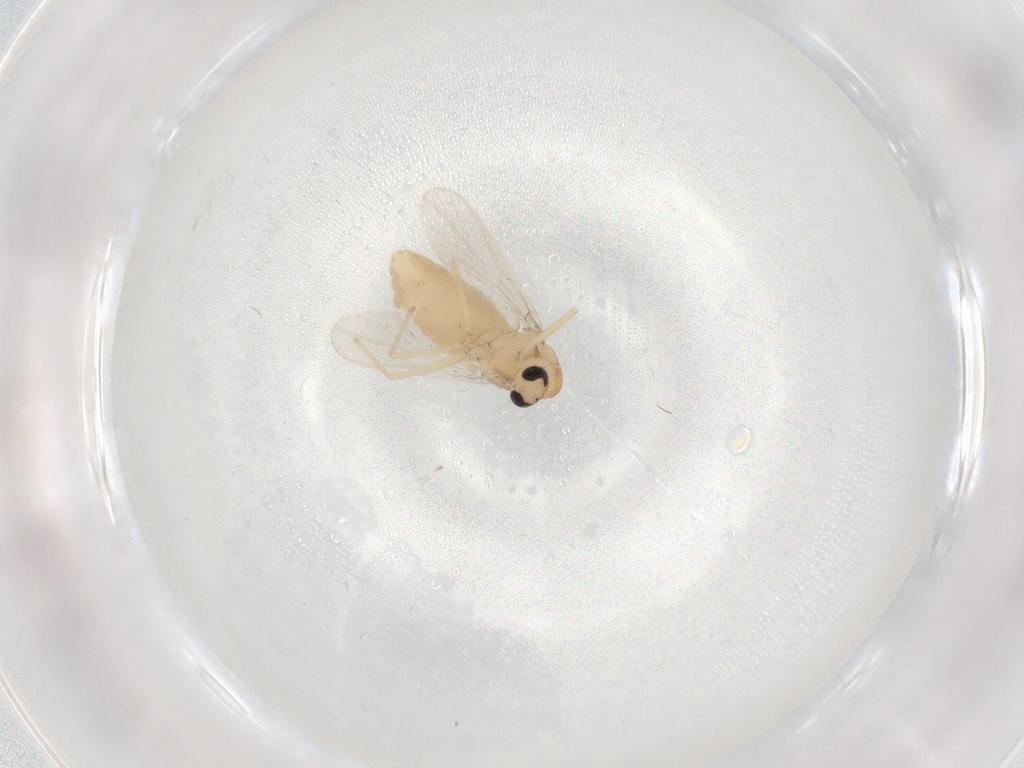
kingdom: Animalia
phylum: Arthropoda
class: Insecta
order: Diptera
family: Chironomidae
